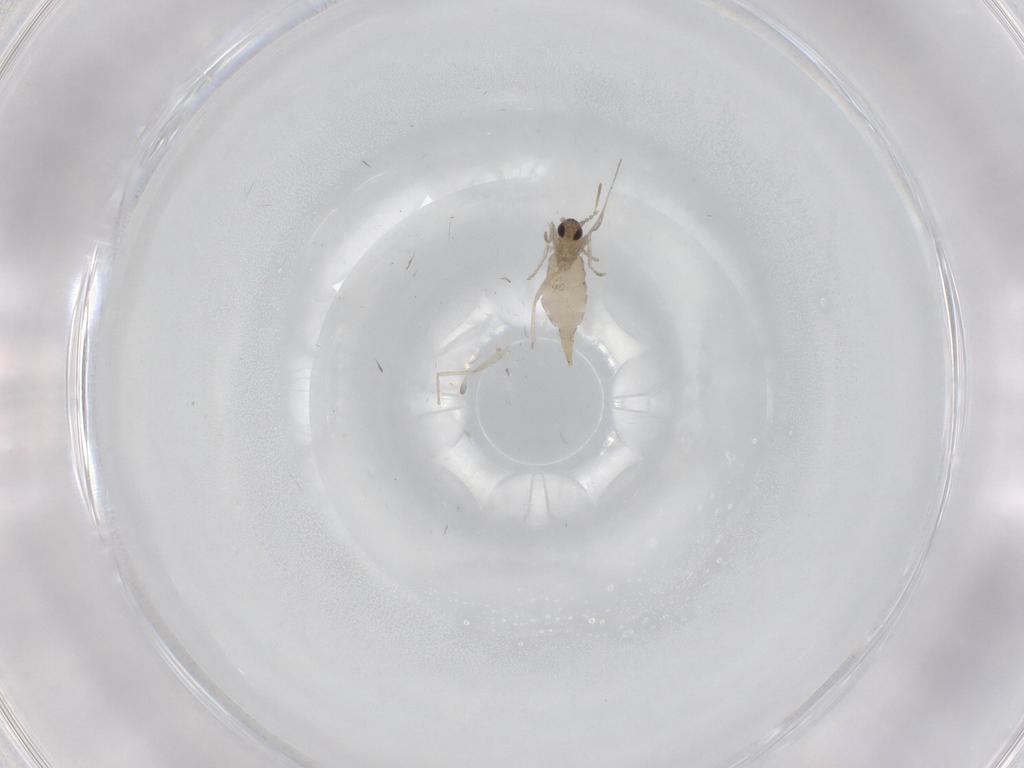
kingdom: Animalia
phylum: Arthropoda
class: Insecta
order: Diptera
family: Cecidomyiidae
